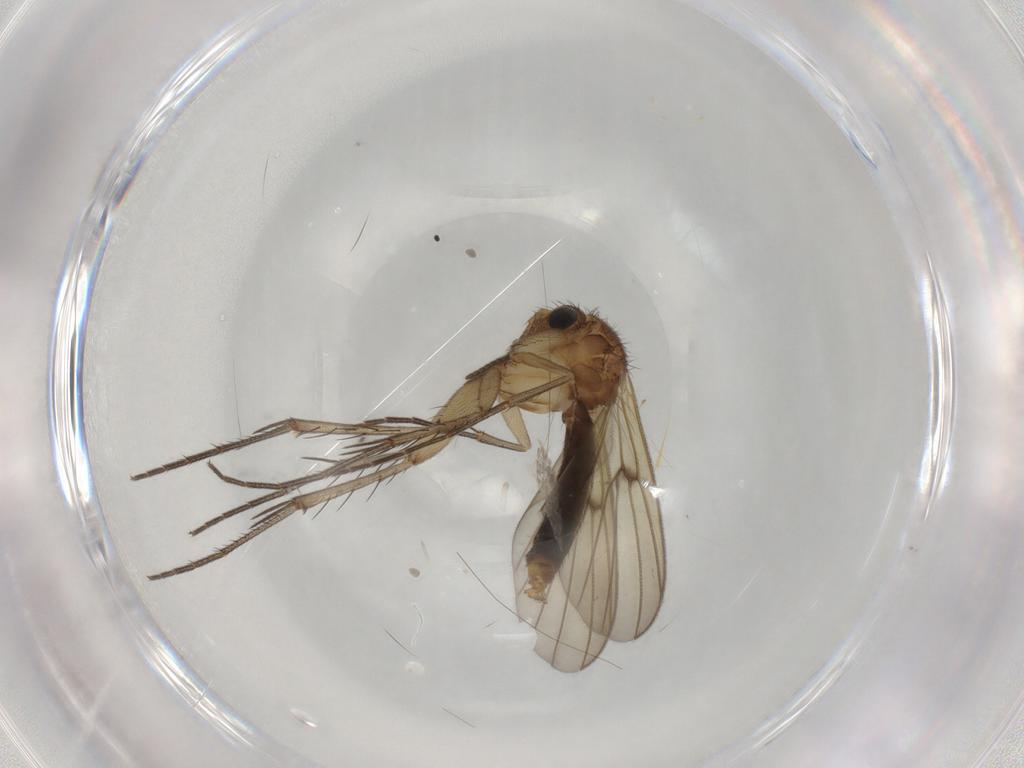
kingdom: Animalia
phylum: Arthropoda
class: Insecta
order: Diptera
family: Mycetophilidae
